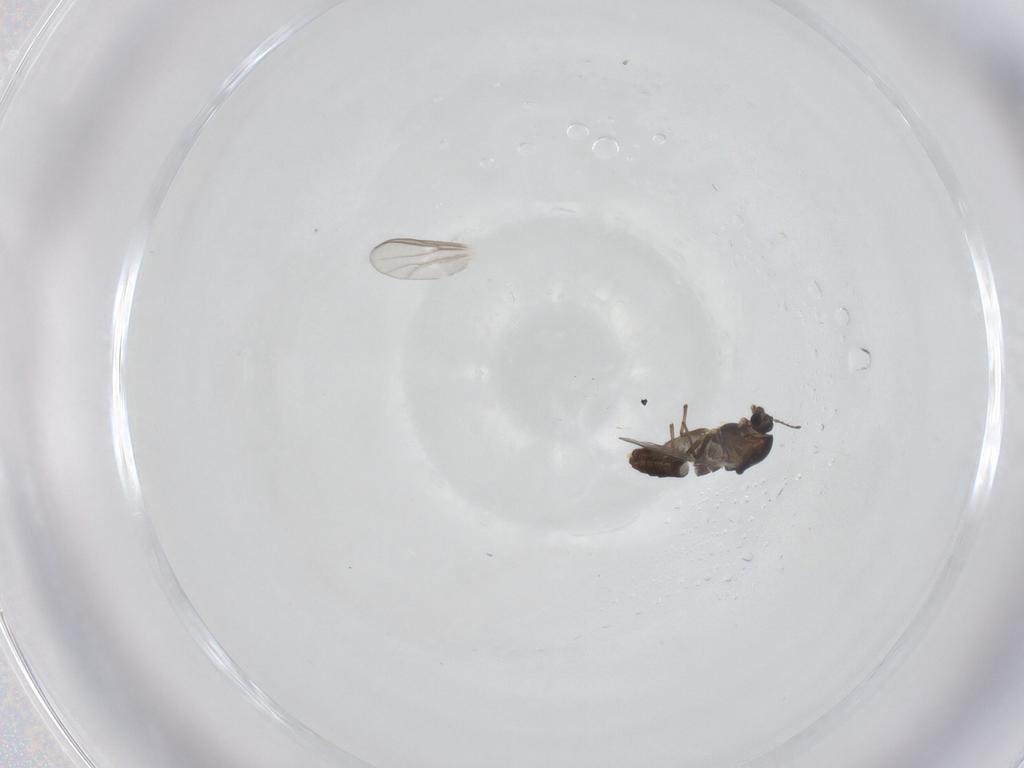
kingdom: Animalia
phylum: Arthropoda
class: Insecta
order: Diptera
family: Chironomidae
